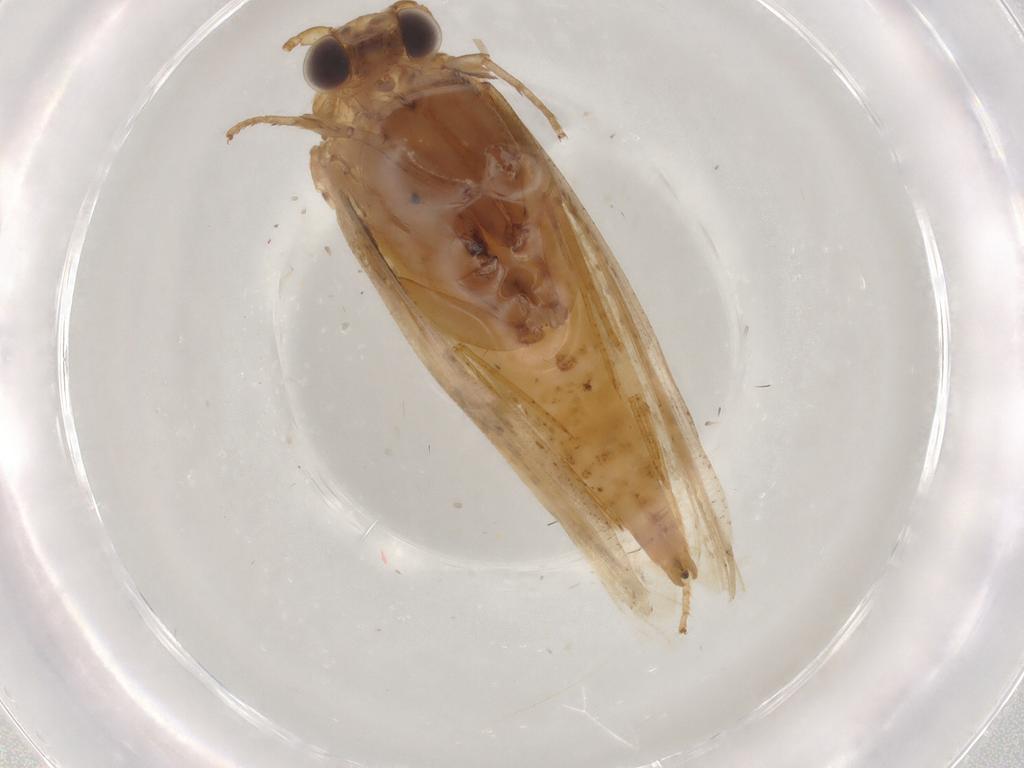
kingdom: Animalia
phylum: Arthropoda
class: Insecta
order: Lepidoptera
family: Tineidae
